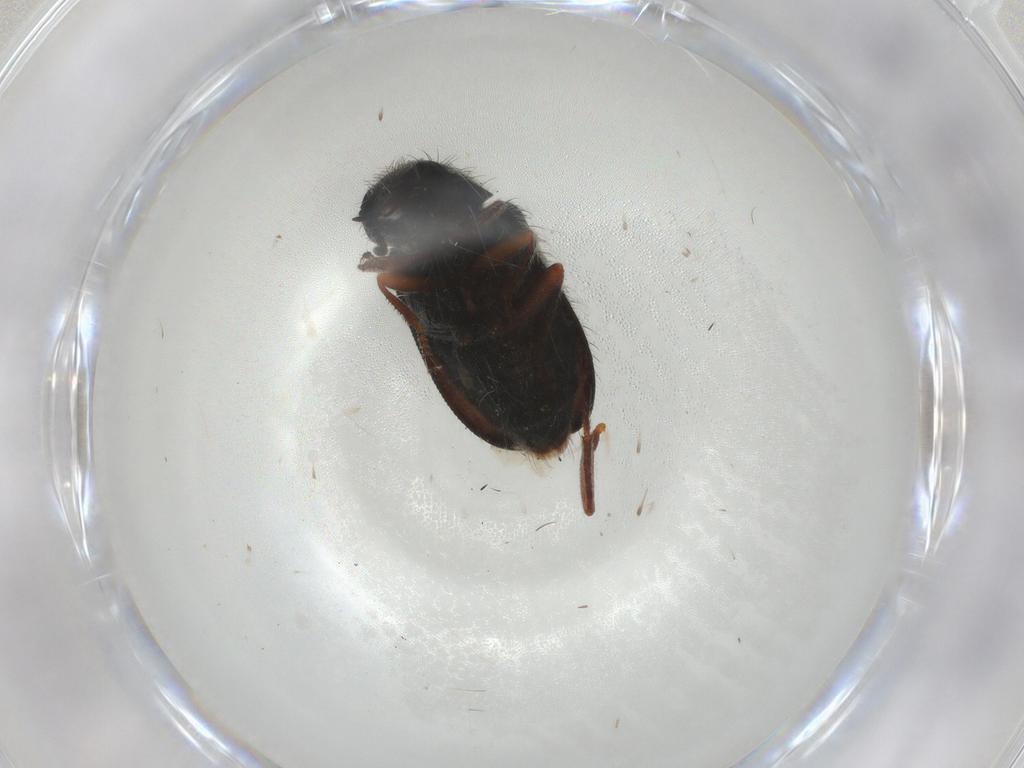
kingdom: Animalia
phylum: Arthropoda
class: Insecta
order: Coleoptera
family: Melyridae
